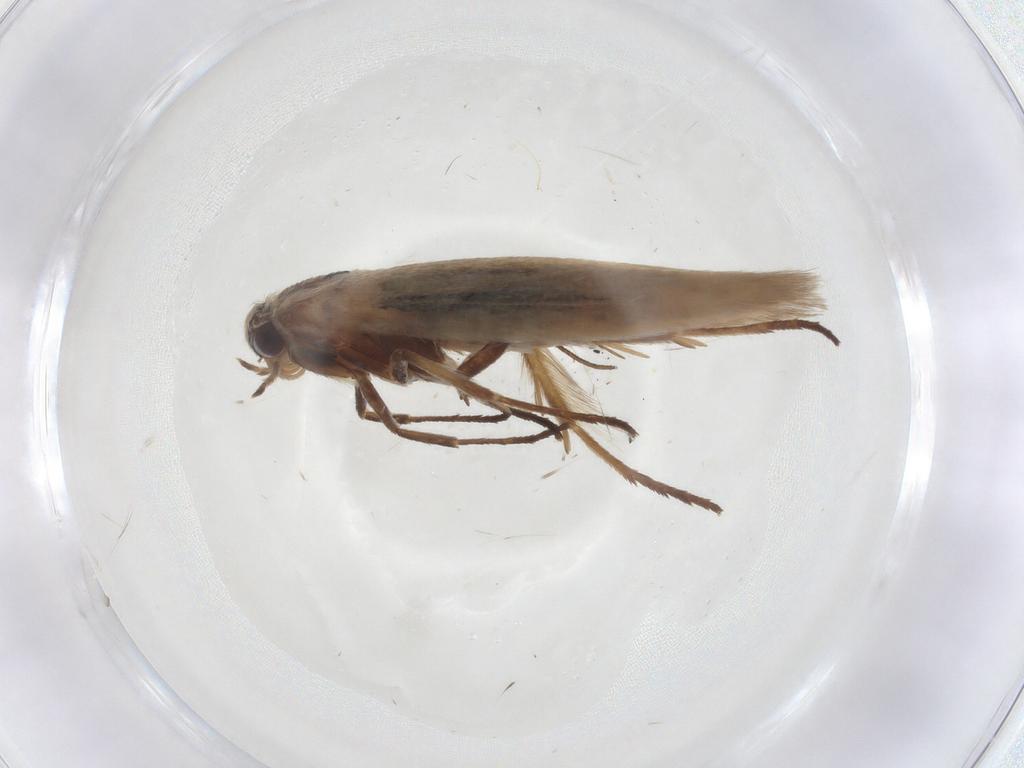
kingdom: Animalia
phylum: Arthropoda
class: Insecta
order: Lepidoptera
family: Scythrididae
